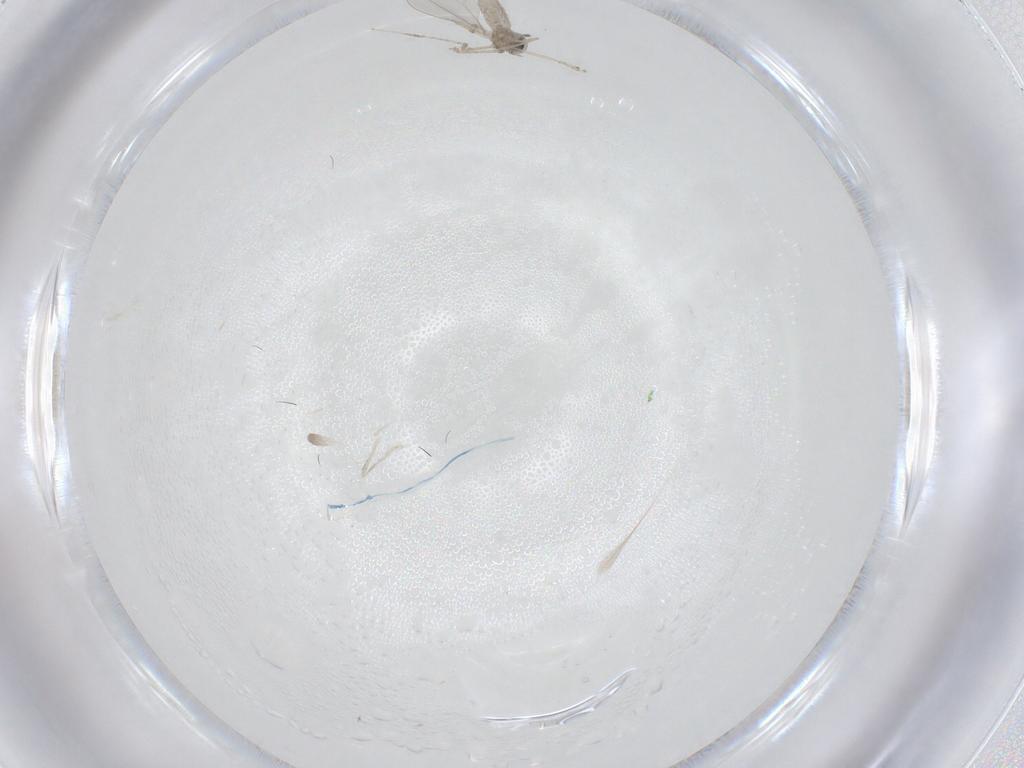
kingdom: Animalia
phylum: Arthropoda
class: Insecta
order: Diptera
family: Cecidomyiidae
